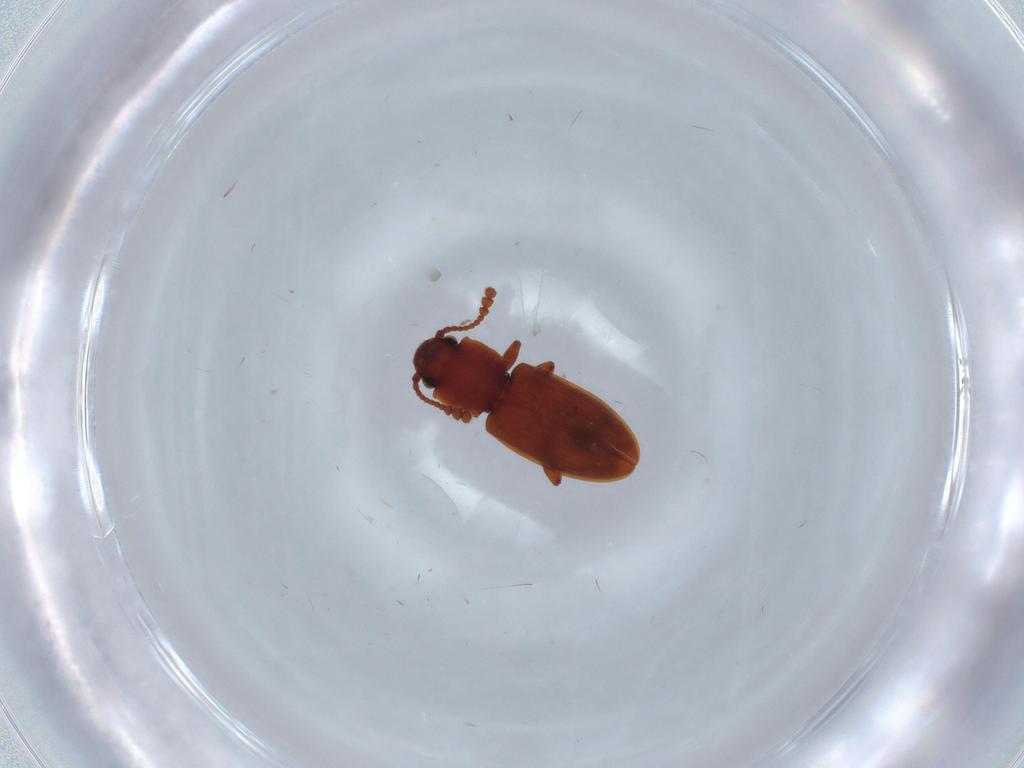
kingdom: Animalia
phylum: Arthropoda
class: Insecta
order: Coleoptera
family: Silvanidae
